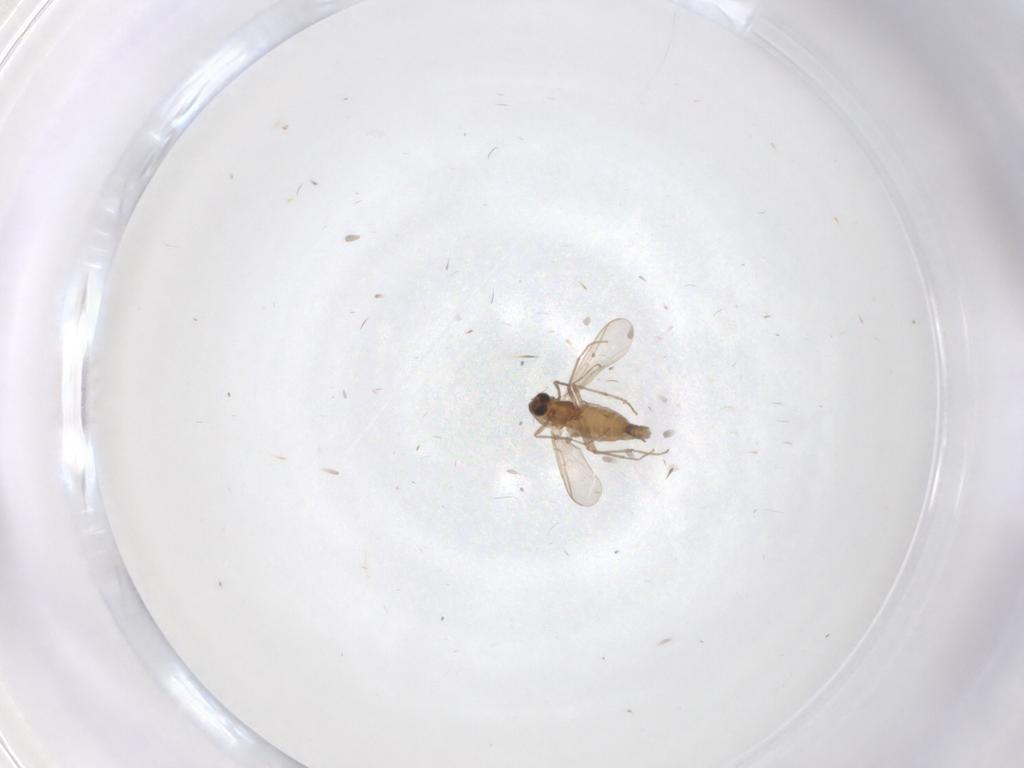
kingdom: Animalia
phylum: Arthropoda
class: Insecta
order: Diptera
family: Chironomidae
